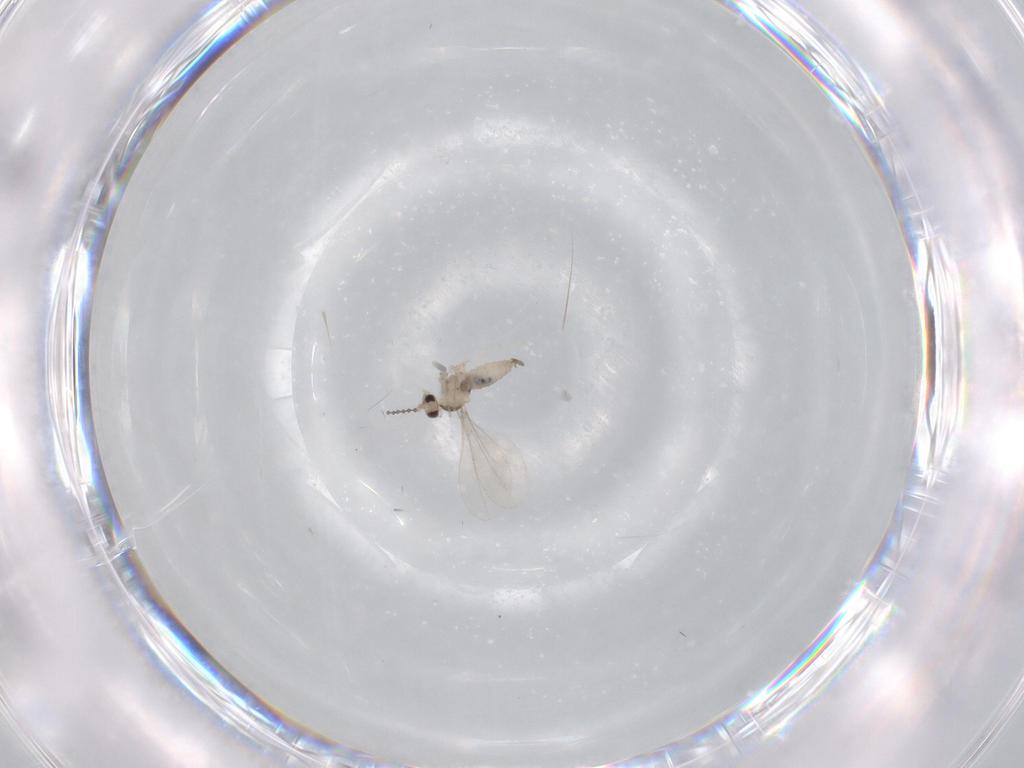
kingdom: Animalia
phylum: Arthropoda
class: Insecta
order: Diptera
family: Cecidomyiidae
